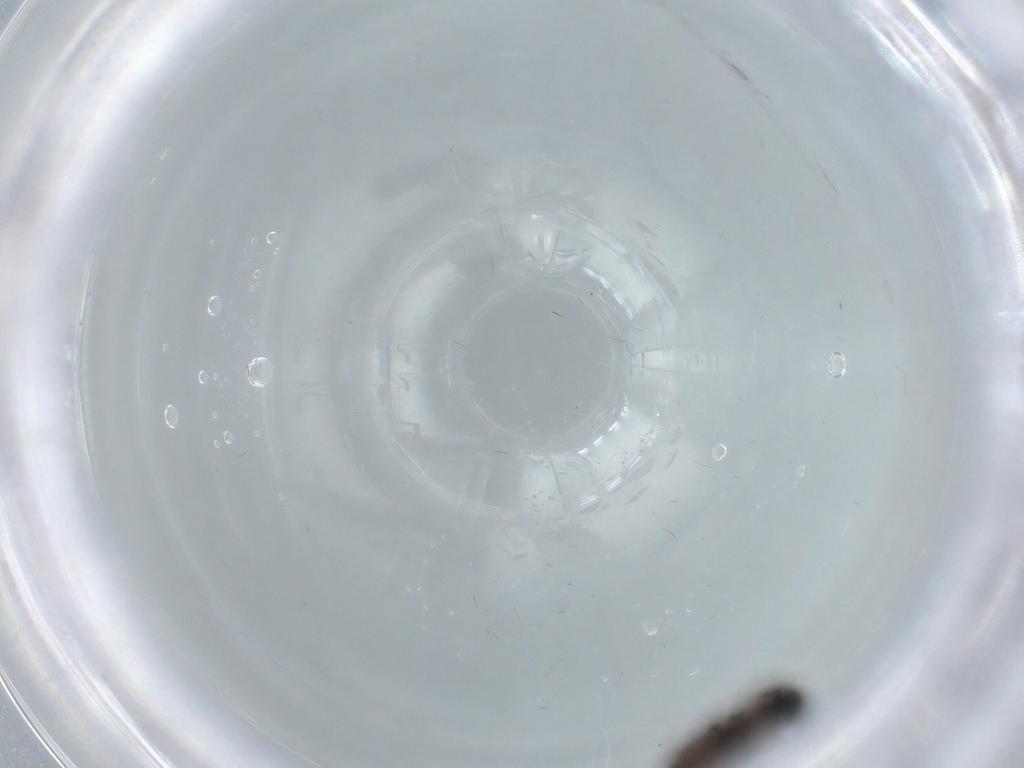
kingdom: Animalia
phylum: Arthropoda
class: Insecta
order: Diptera
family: Psychodidae
